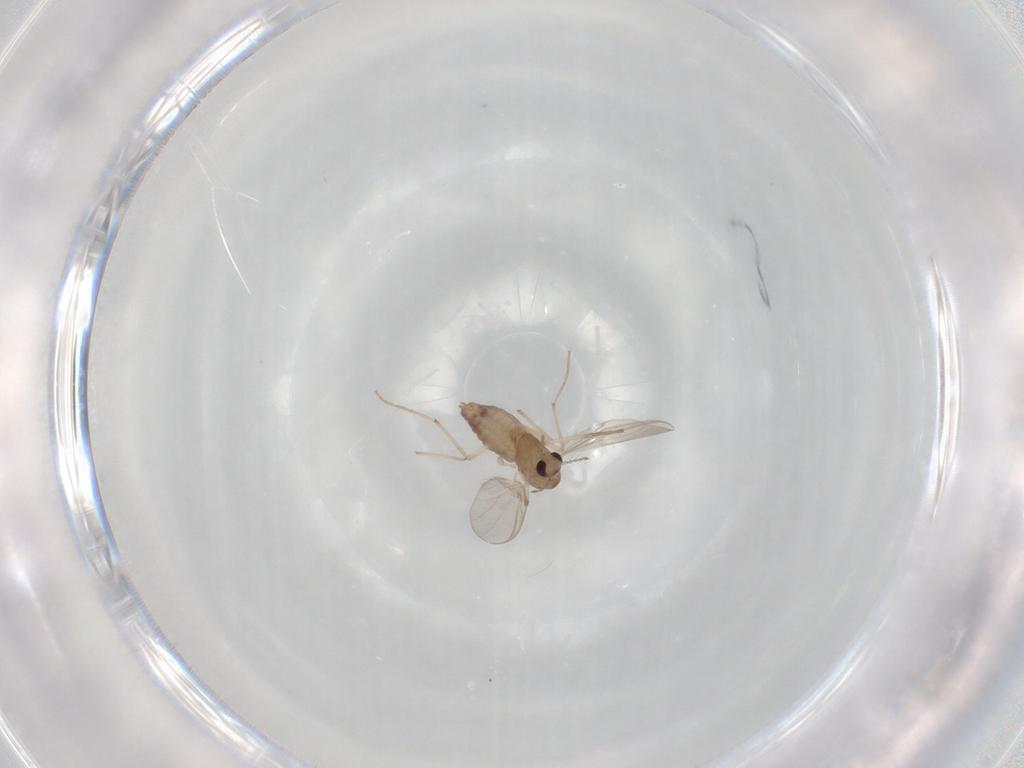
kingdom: Animalia
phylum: Arthropoda
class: Insecta
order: Diptera
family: Chironomidae
